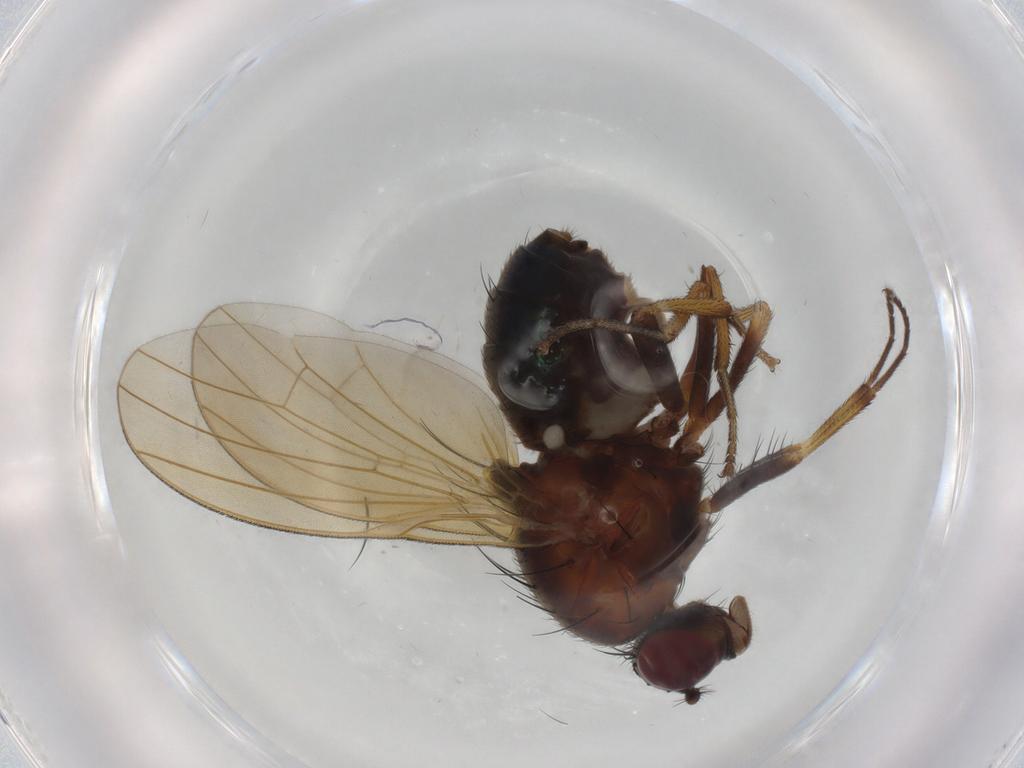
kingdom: Animalia
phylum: Arthropoda
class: Insecta
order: Diptera
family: Lauxaniidae
